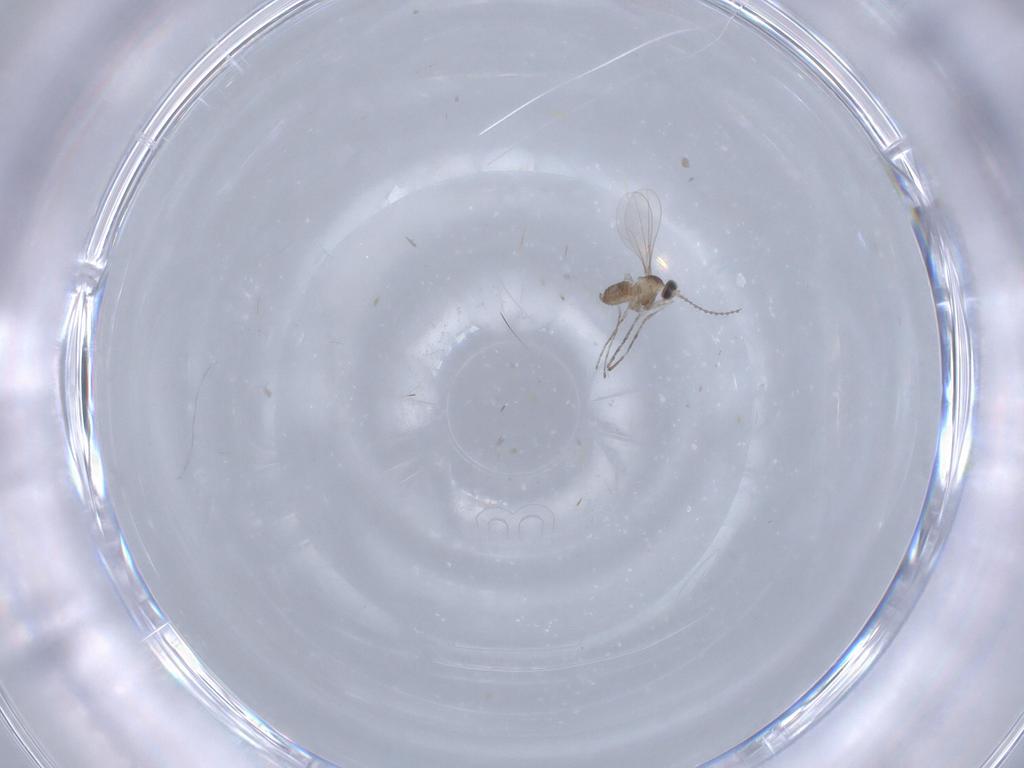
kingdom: Animalia
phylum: Arthropoda
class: Insecta
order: Diptera
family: Cecidomyiidae
